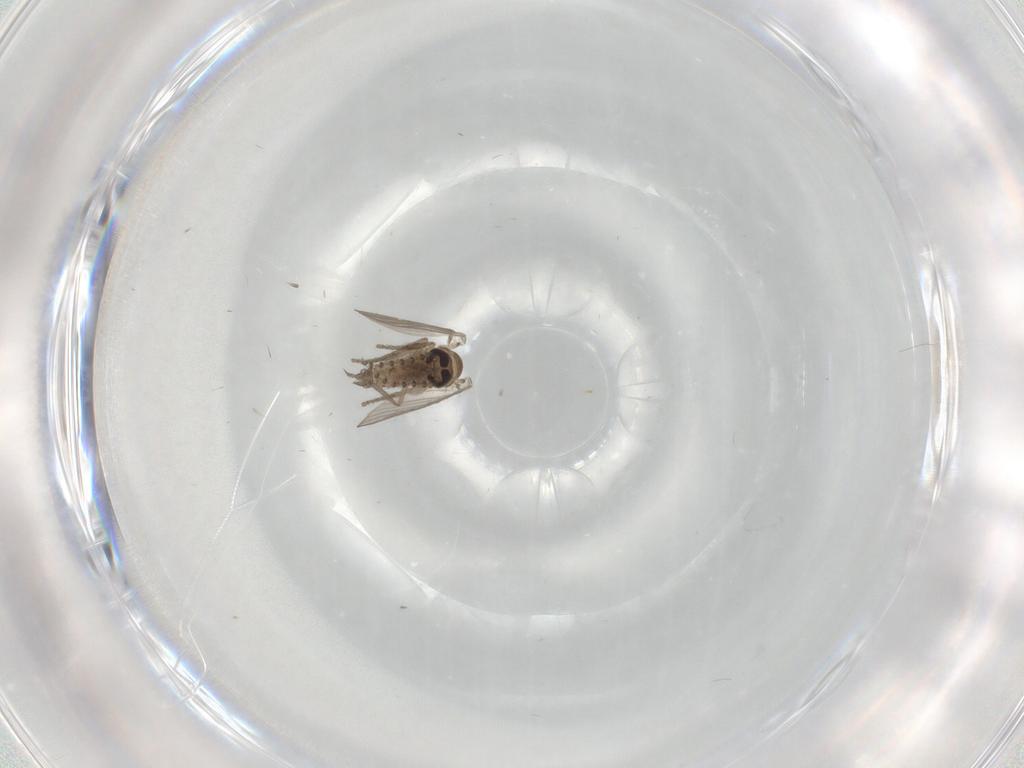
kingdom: Animalia
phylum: Arthropoda
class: Insecta
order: Diptera
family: Psychodidae
